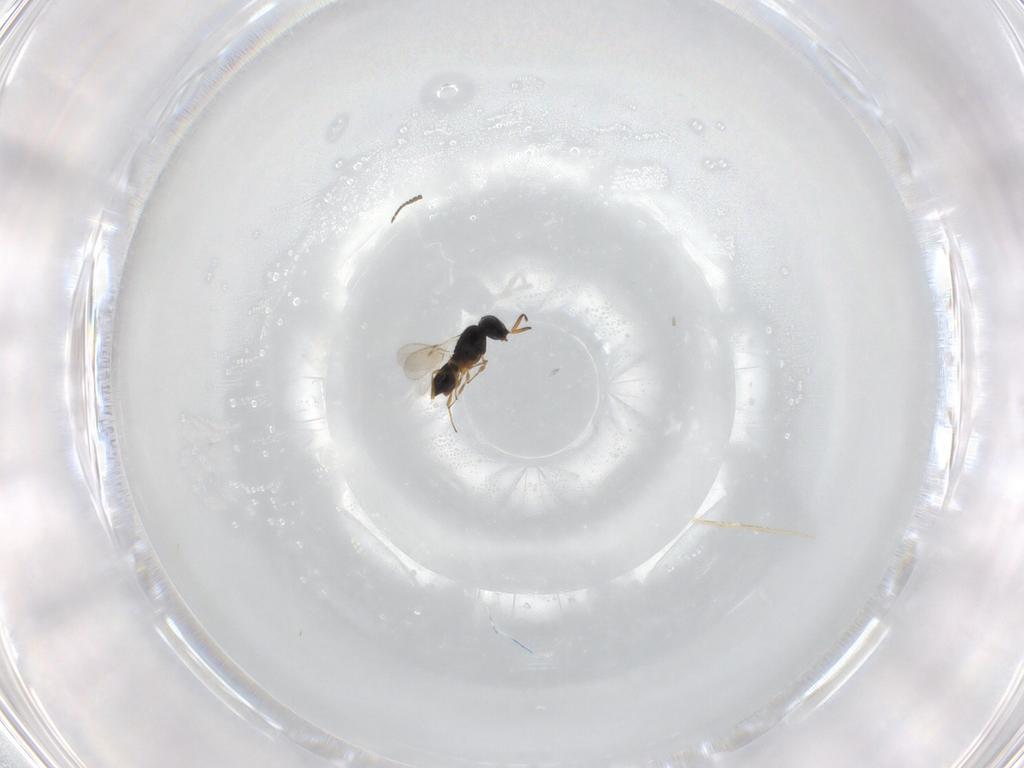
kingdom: Animalia
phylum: Arthropoda
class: Insecta
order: Hymenoptera
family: Scelionidae
